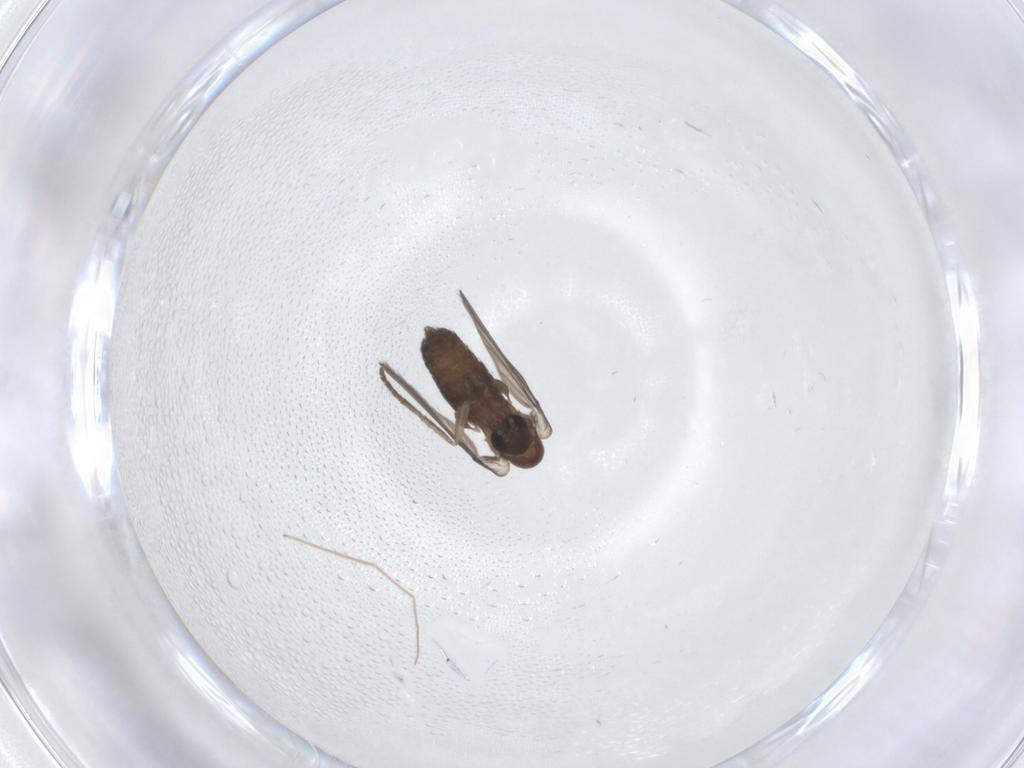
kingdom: Animalia
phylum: Arthropoda
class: Insecta
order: Diptera
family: Chironomidae
